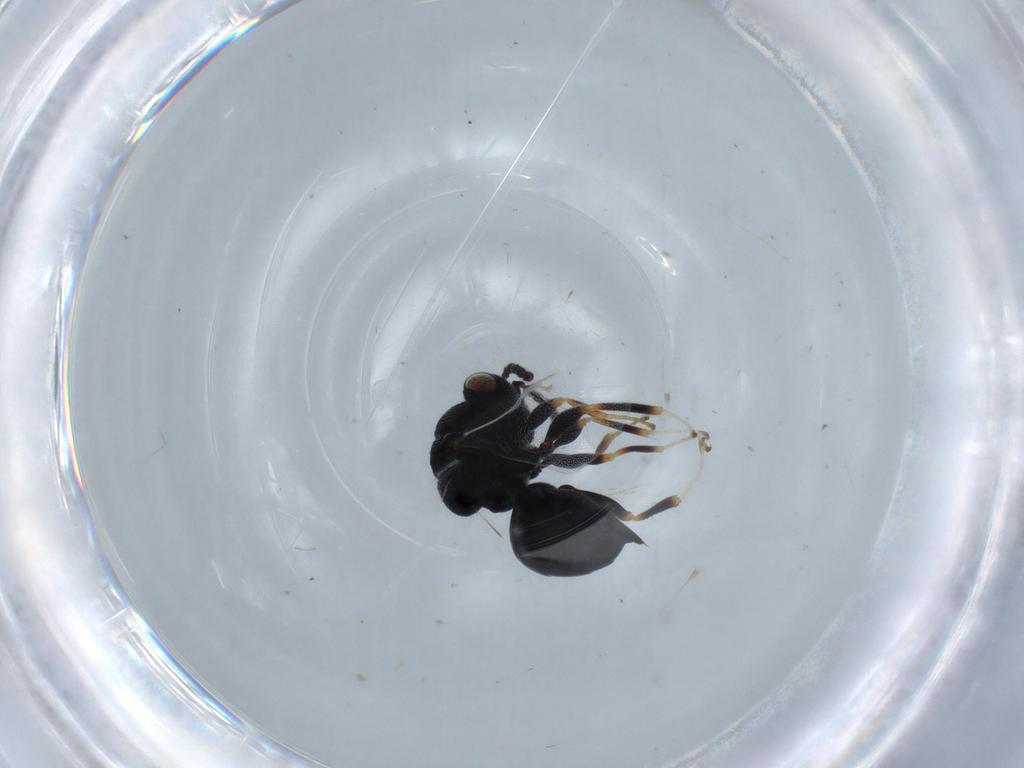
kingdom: Animalia
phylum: Arthropoda
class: Insecta
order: Hymenoptera
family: Eurytomidae
